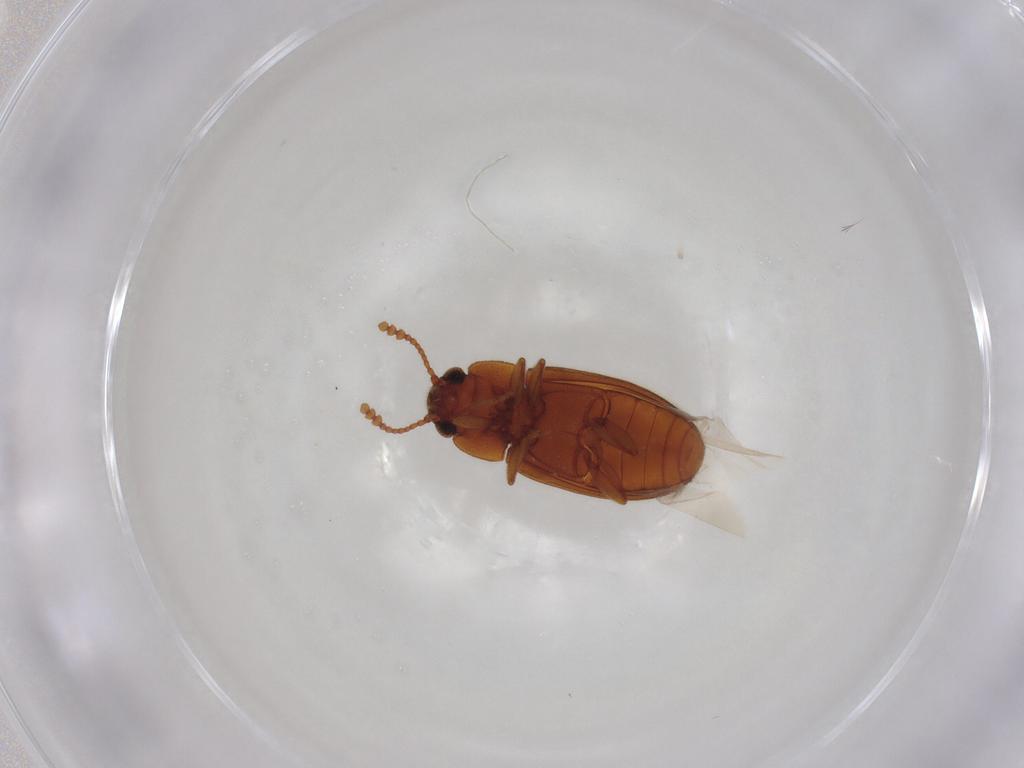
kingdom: Animalia
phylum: Arthropoda
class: Insecta
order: Coleoptera
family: Erotylidae
